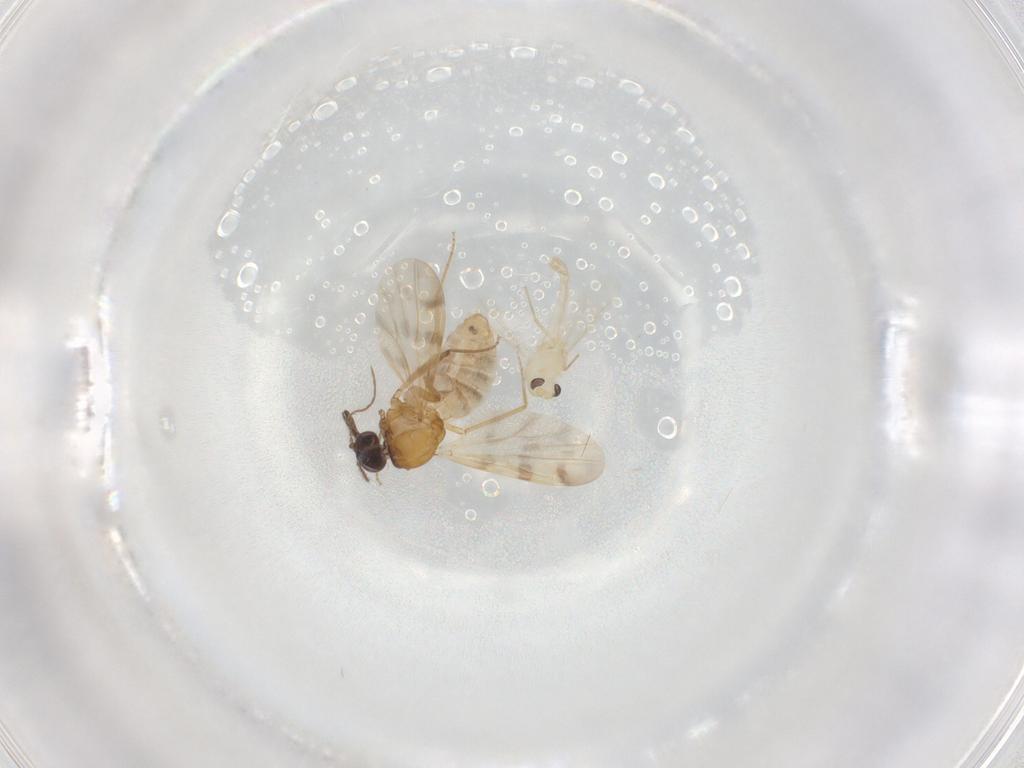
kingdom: Animalia
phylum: Arthropoda
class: Insecta
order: Diptera
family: Chironomidae
